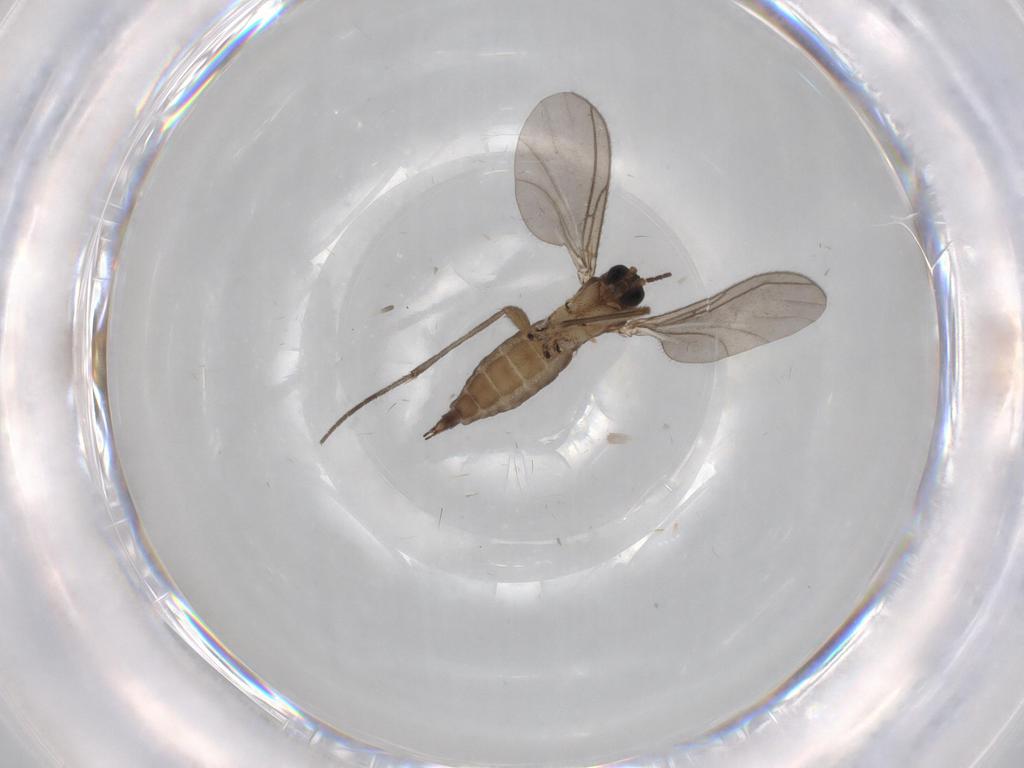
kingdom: Animalia
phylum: Arthropoda
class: Insecta
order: Diptera
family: Sciaridae
